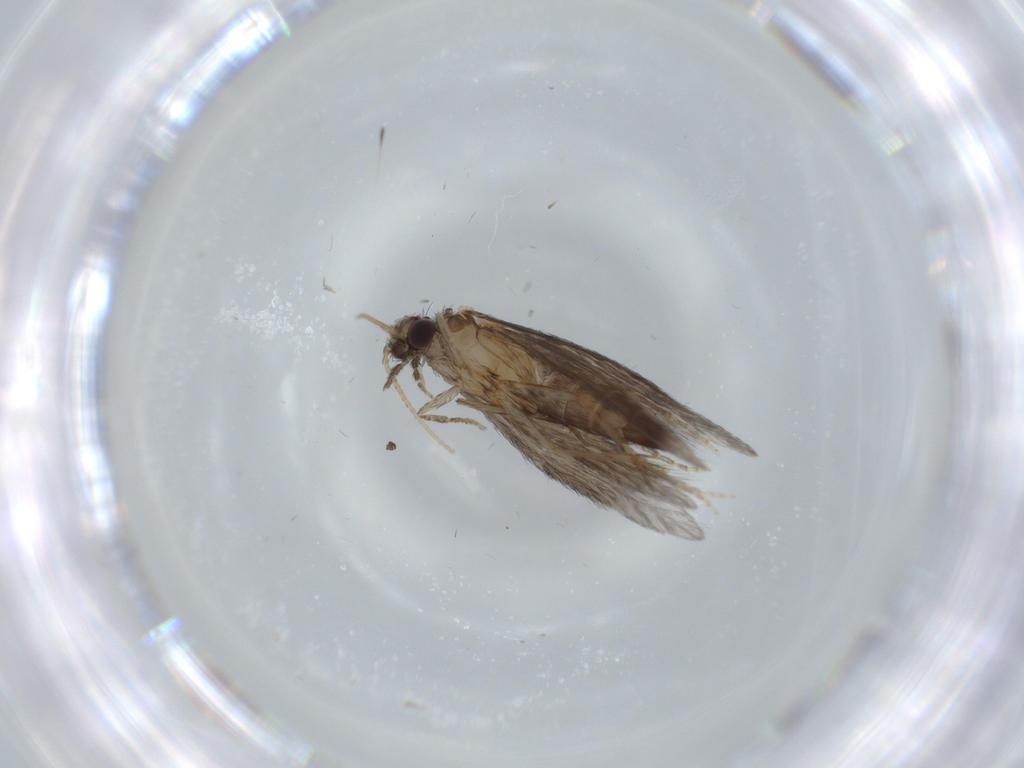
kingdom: Animalia
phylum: Arthropoda
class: Insecta
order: Trichoptera
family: Hydroptilidae
